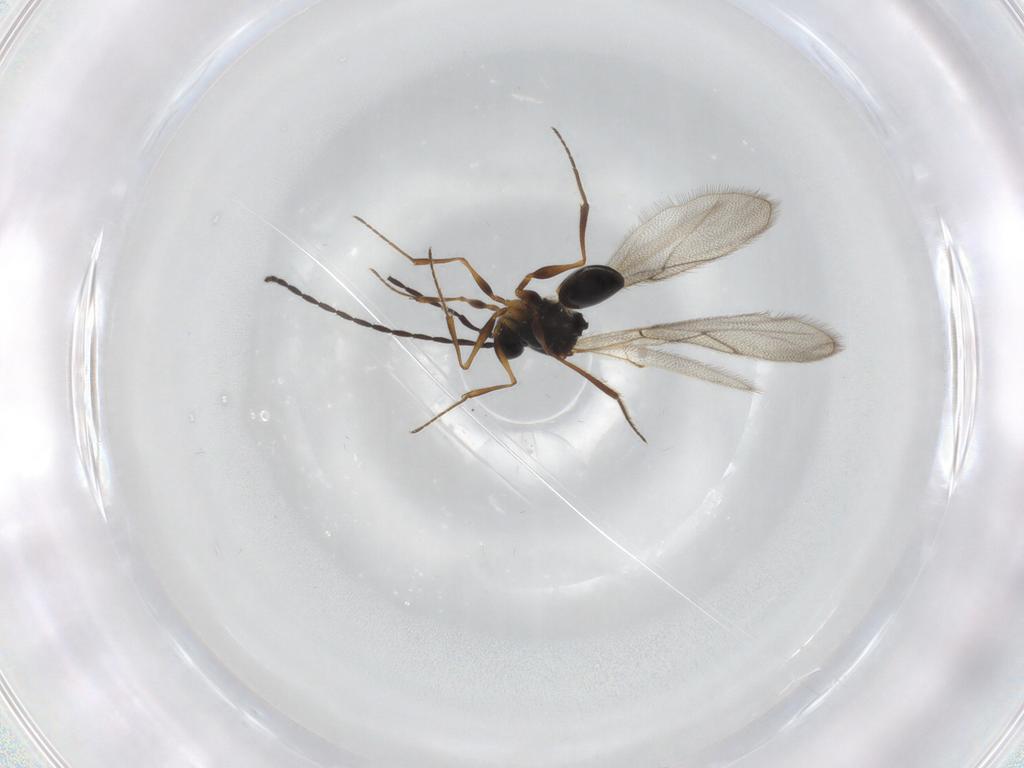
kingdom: Animalia
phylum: Arthropoda
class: Insecta
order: Hymenoptera
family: Figitidae
